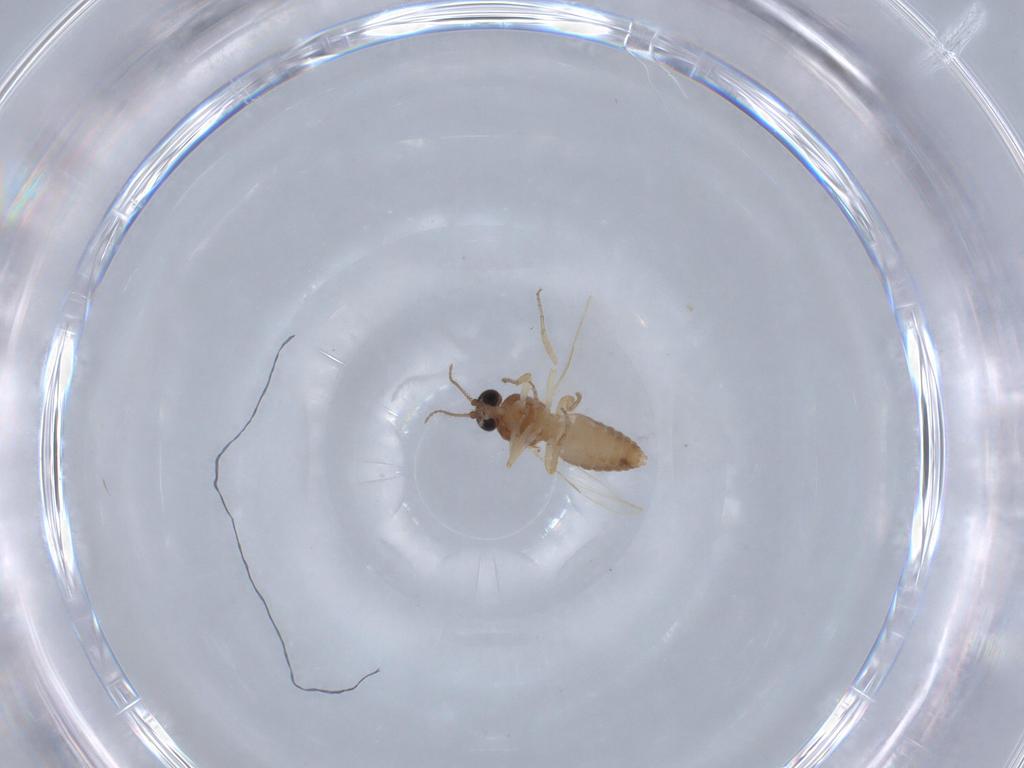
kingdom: Animalia
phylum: Arthropoda
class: Insecta
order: Diptera
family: Ceratopogonidae
